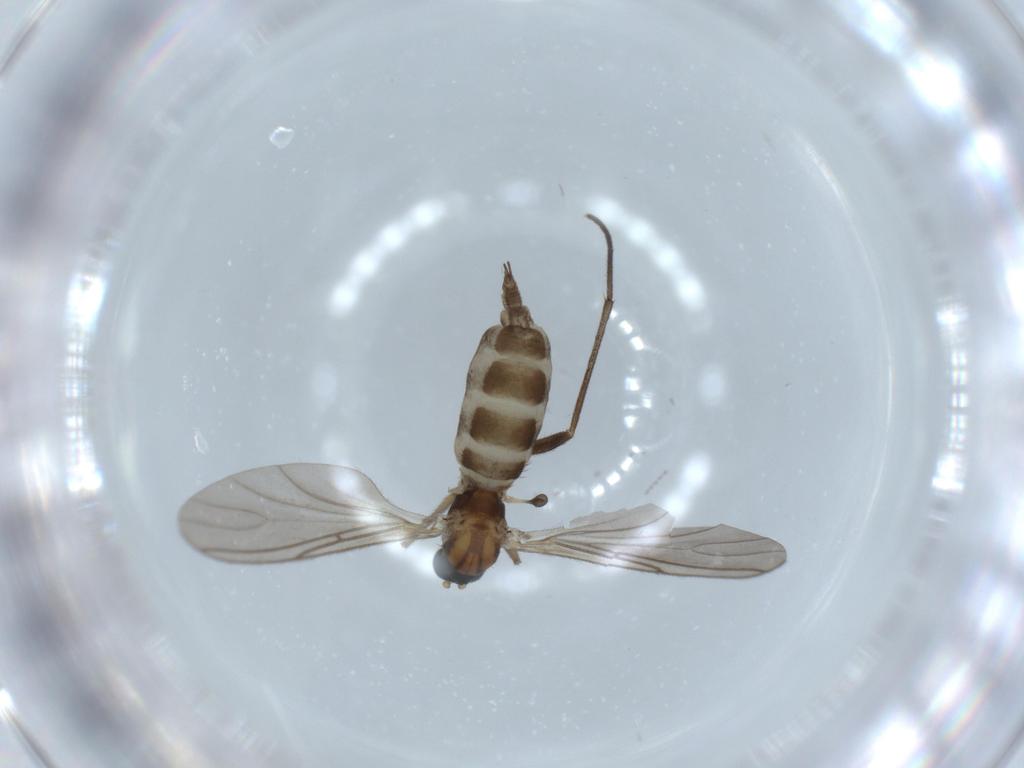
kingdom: Animalia
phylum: Arthropoda
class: Insecta
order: Diptera
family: Sciaridae
